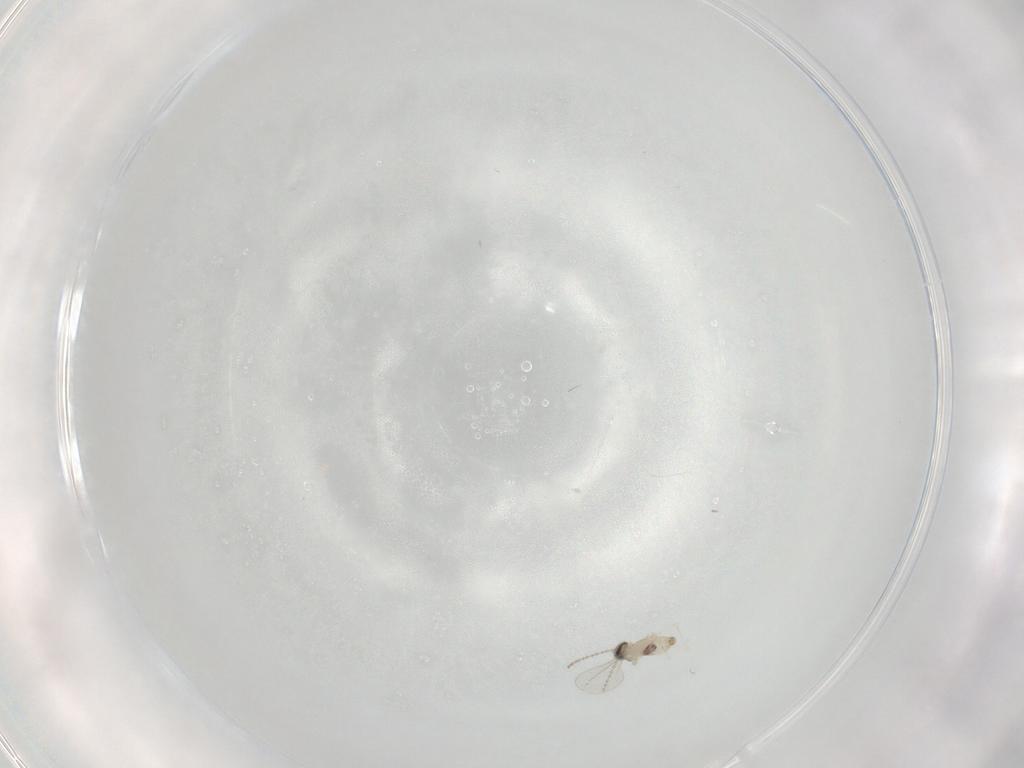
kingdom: Animalia
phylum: Arthropoda
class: Insecta
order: Diptera
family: Cecidomyiidae
